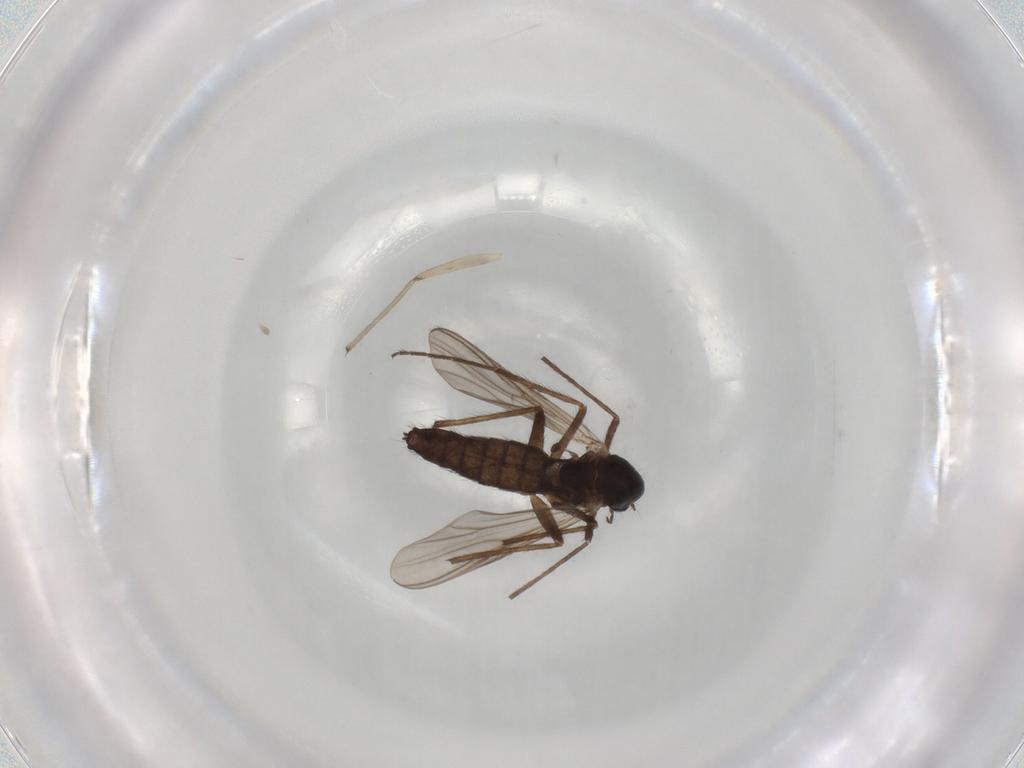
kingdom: Animalia
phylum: Arthropoda
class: Insecta
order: Diptera
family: Chironomidae
